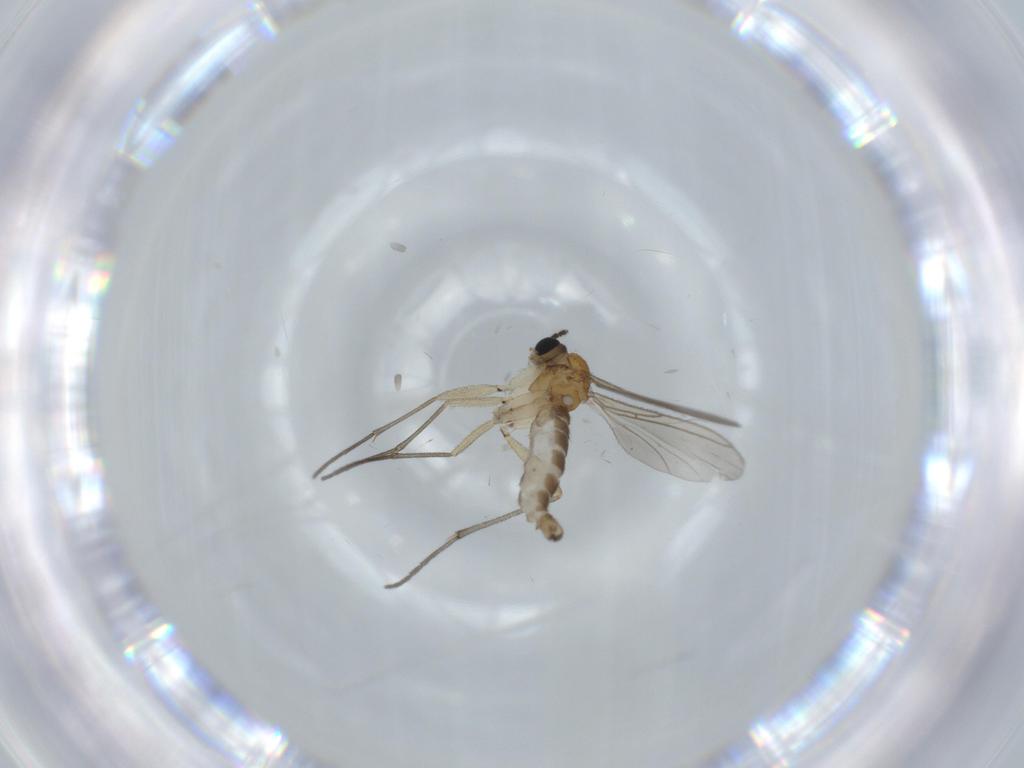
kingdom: Animalia
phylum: Arthropoda
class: Insecta
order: Diptera
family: Sciaridae
